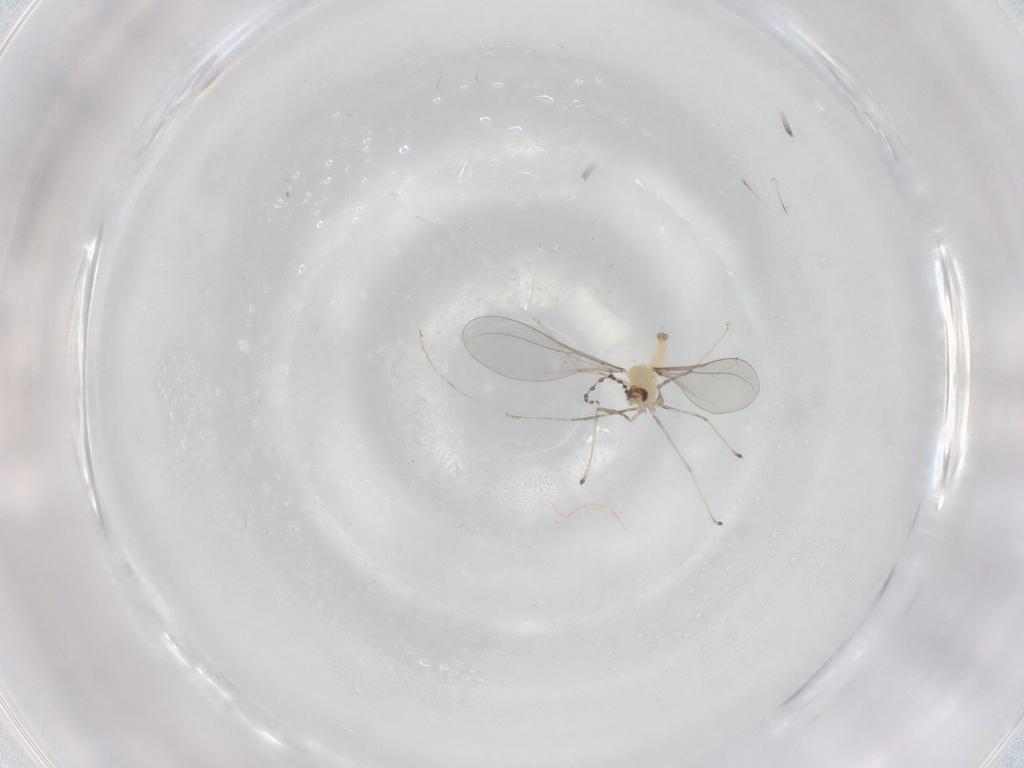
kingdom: Animalia
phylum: Arthropoda
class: Insecta
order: Diptera
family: Cecidomyiidae
